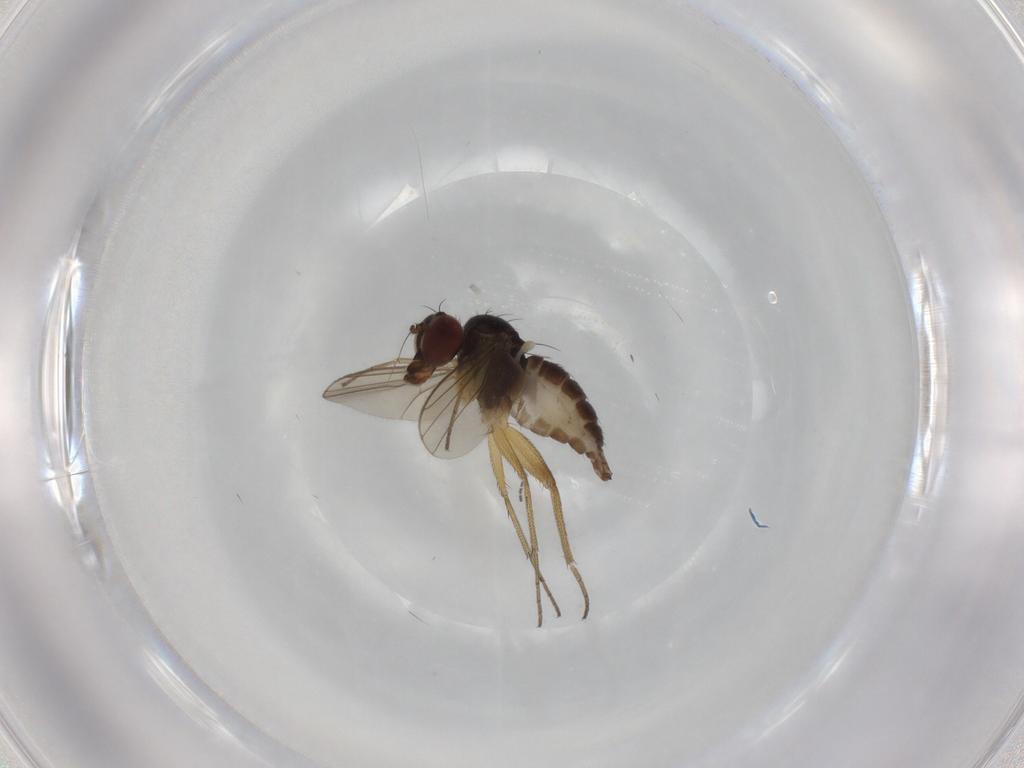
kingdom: Animalia
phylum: Arthropoda
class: Insecta
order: Diptera
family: Dolichopodidae
